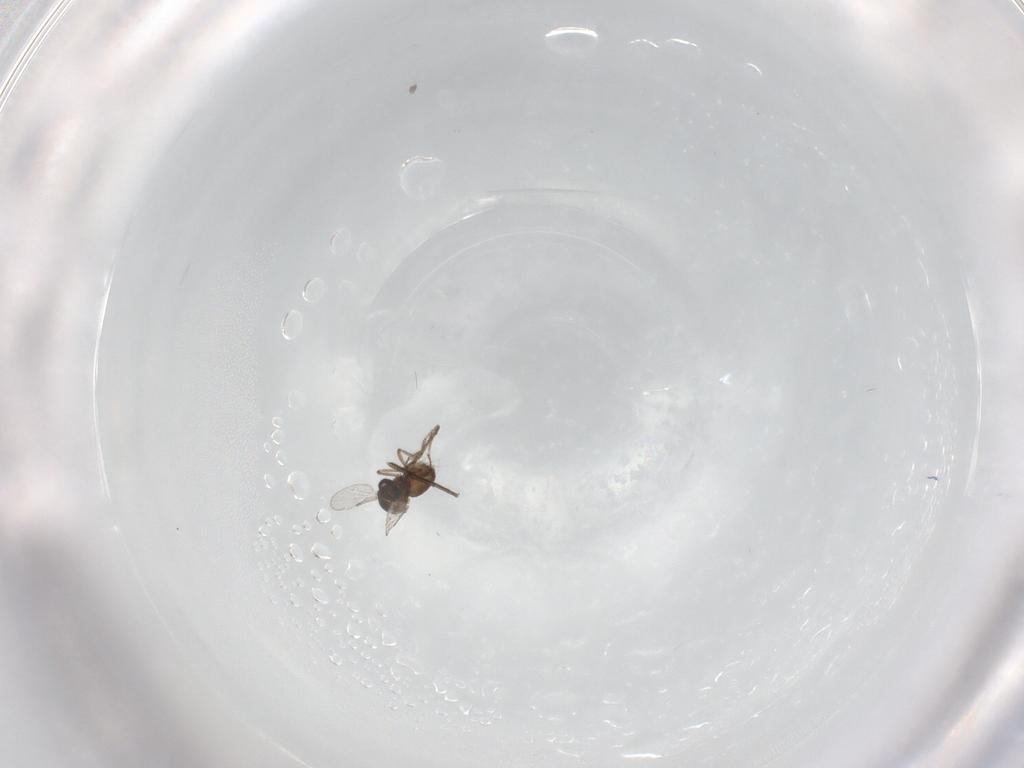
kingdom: Animalia
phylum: Arthropoda
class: Insecta
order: Diptera
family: Ceratopogonidae
